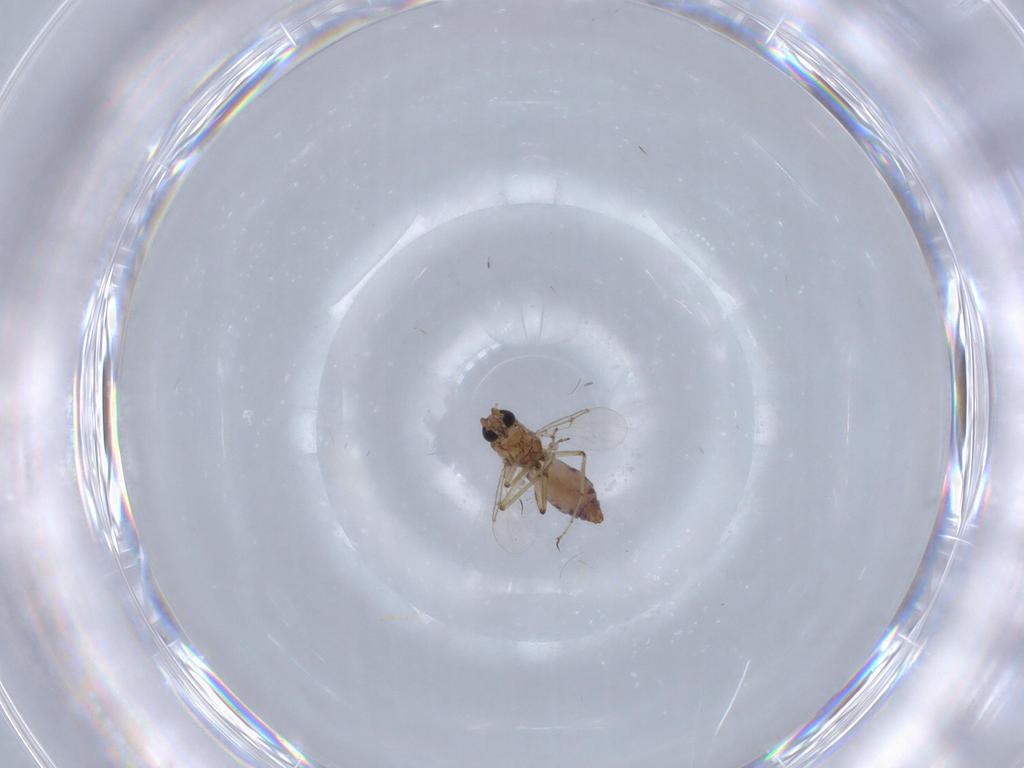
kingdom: Animalia
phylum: Arthropoda
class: Insecta
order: Diptera
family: Ceratopogonidae
